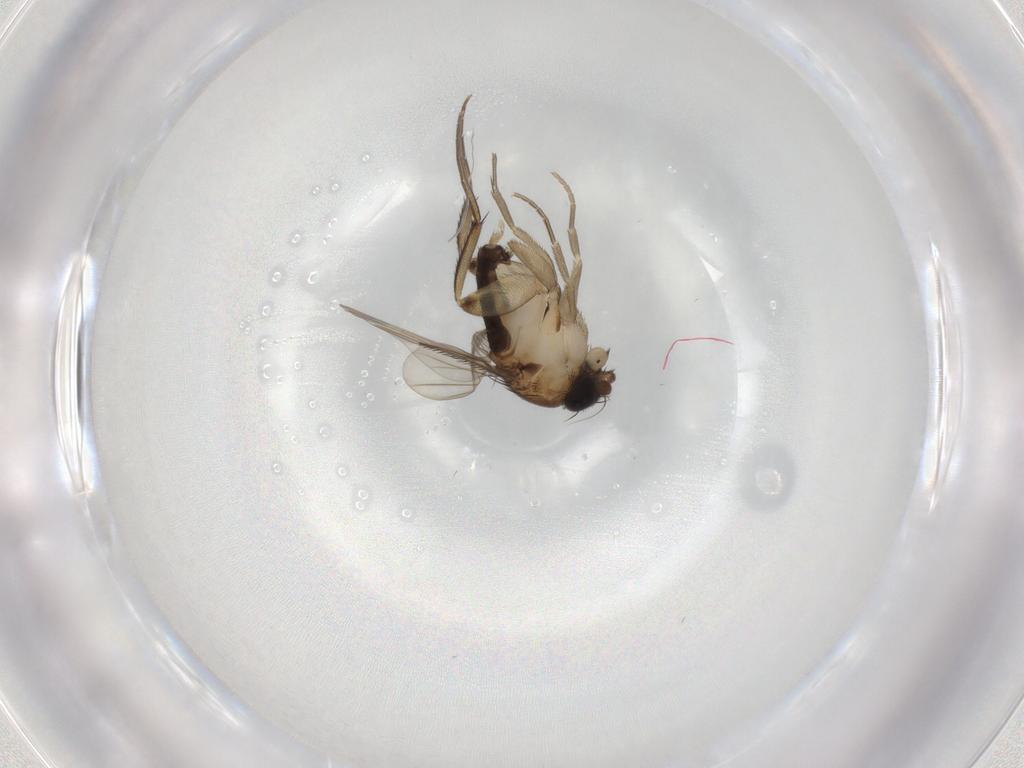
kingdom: Animalia
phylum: Arthropoda
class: Insecta
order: Diptera
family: Phoridae
